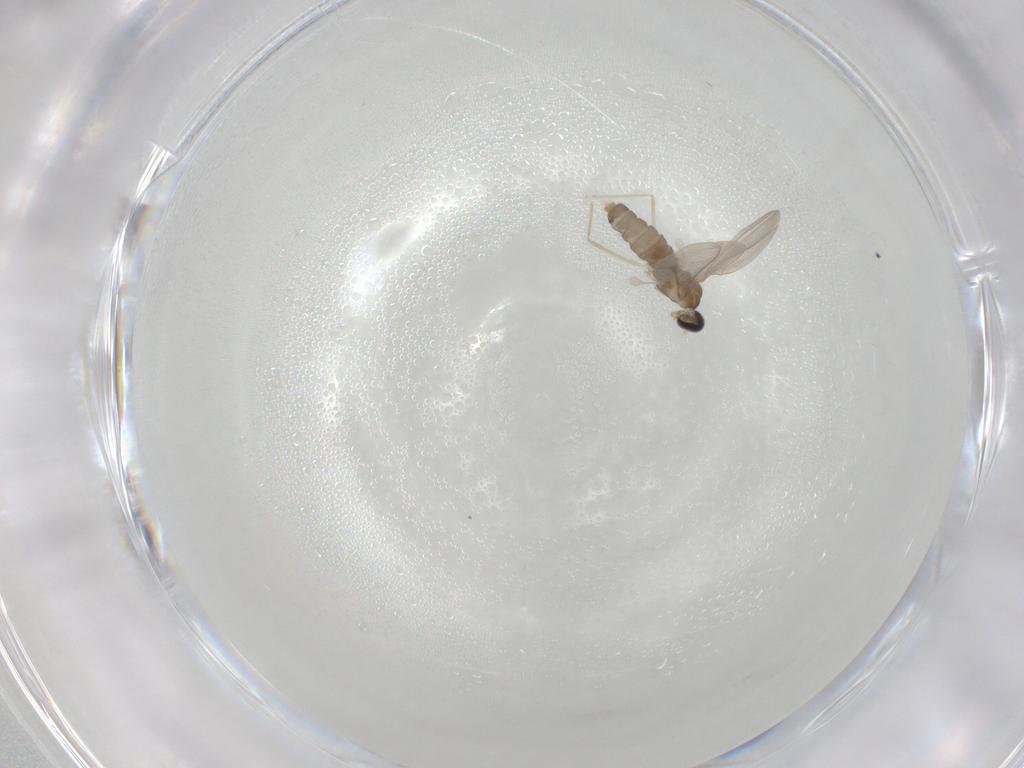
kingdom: Animalia
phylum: Arthropoda
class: Insecta
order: Diptera
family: Cecidomyiidae
